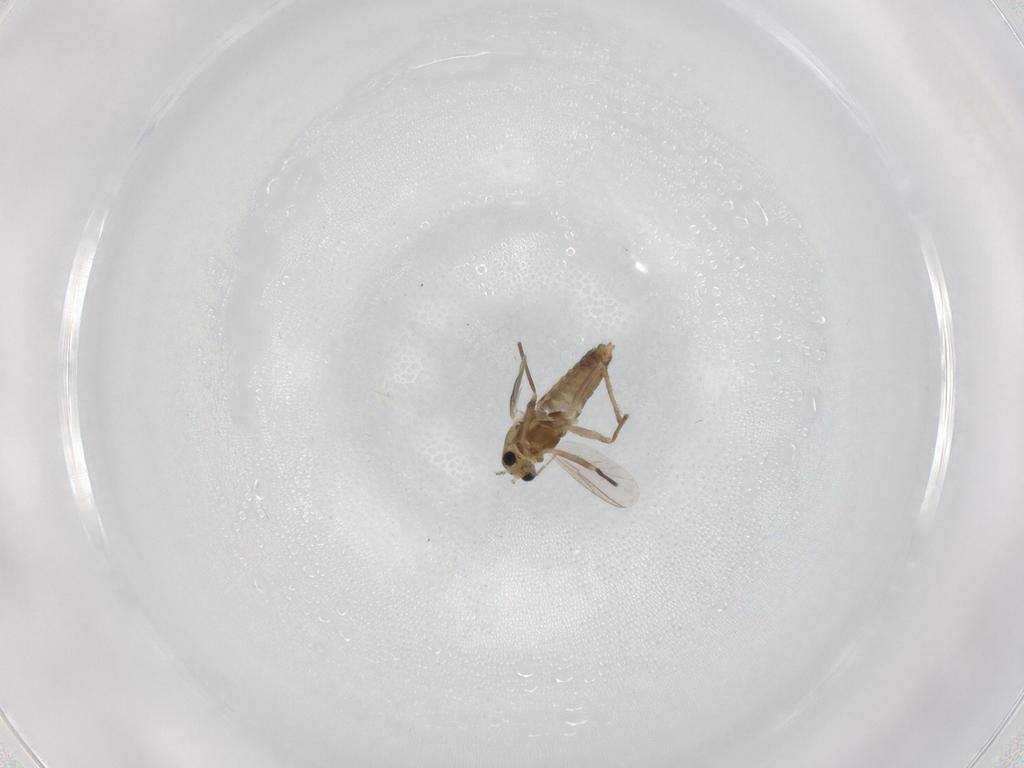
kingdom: Animalia
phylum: Arthropoda
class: Insecta
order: Diptera
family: Chironomidae
